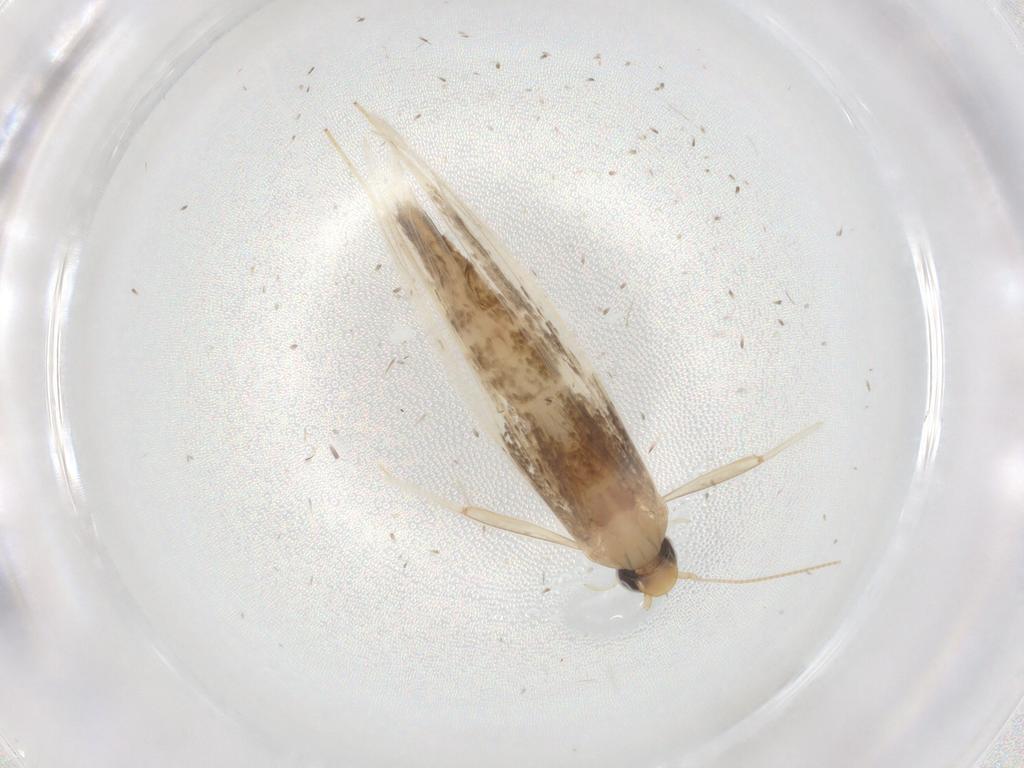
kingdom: Animalia
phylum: Arthropoda
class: Insecta
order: Lepidoptera
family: Gracillariidae
